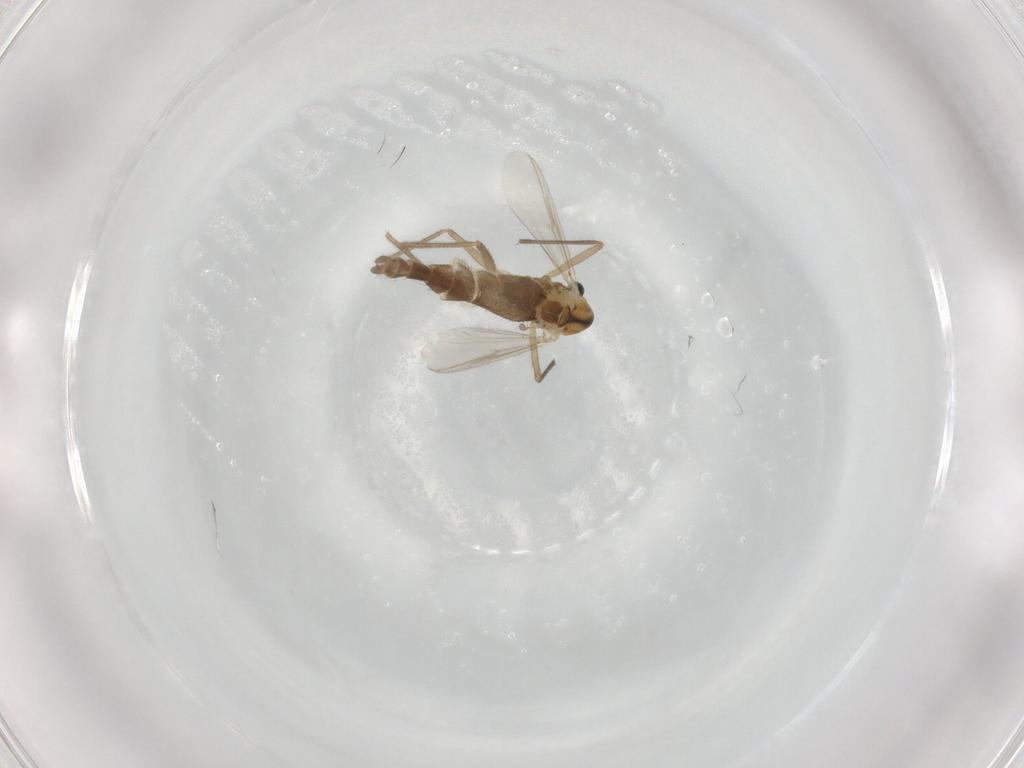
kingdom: Animalia
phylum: Arthropoda
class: Insecta
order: Diptera
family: Sciaridae
